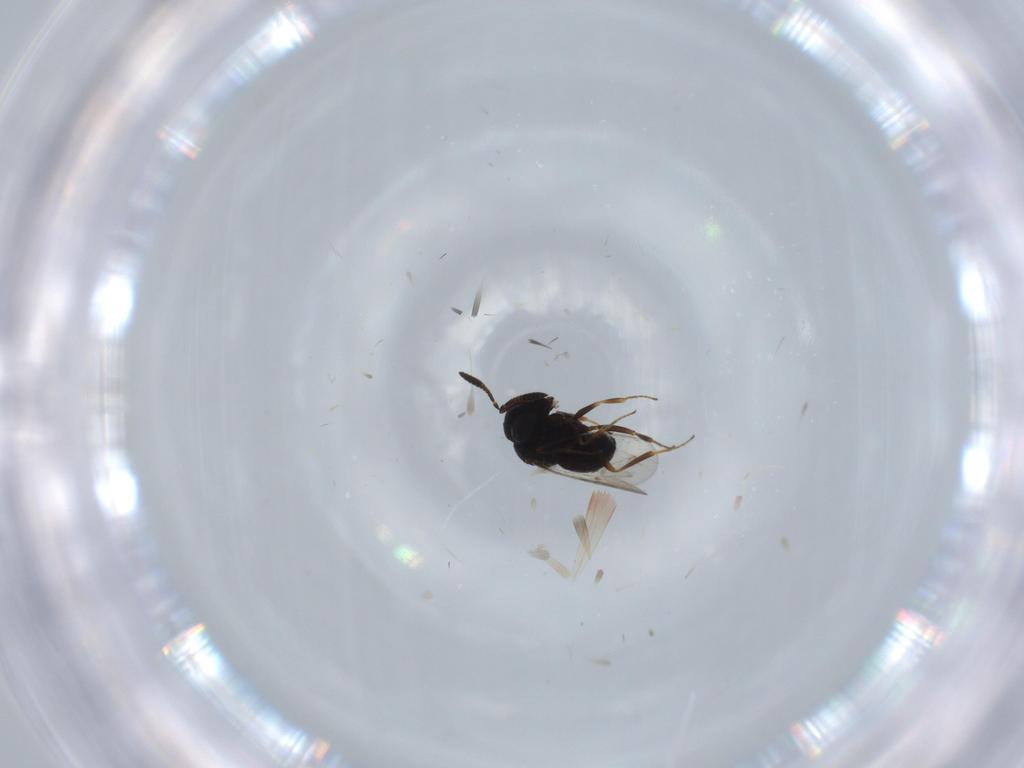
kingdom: Animalia
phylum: Arthropoda
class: Insecta
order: Hymenoptera
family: Scelionidae
